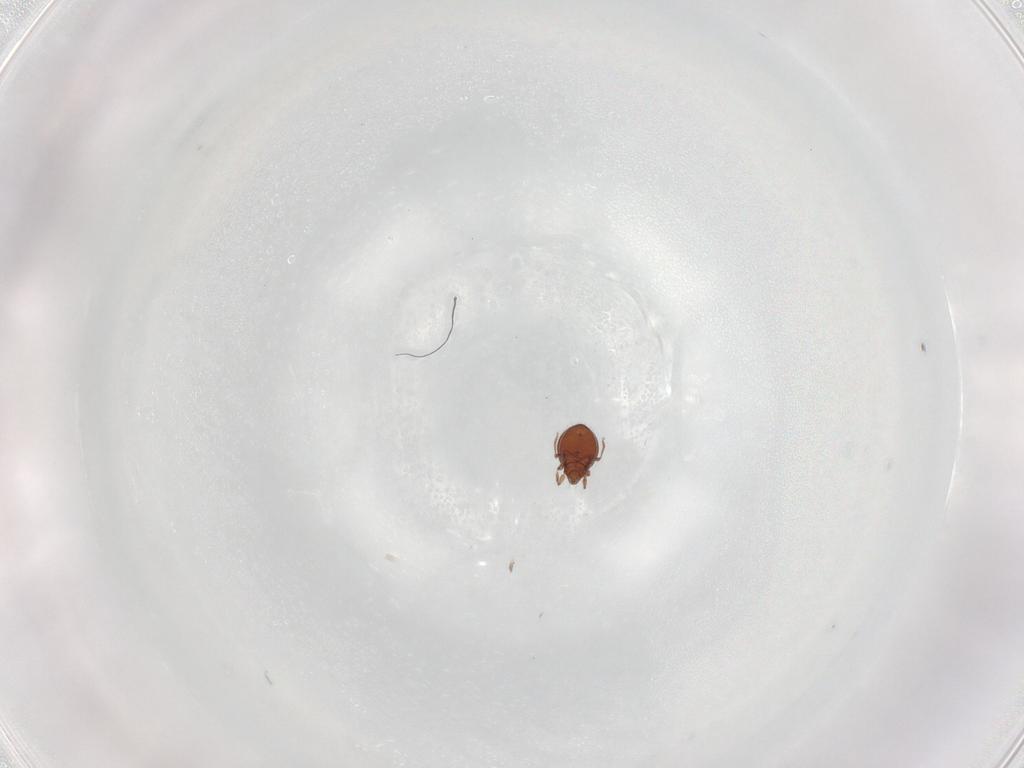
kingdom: Animalia
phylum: Arthropoda
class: Arachnida
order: Sarcoptiformes
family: Oribatulidae
